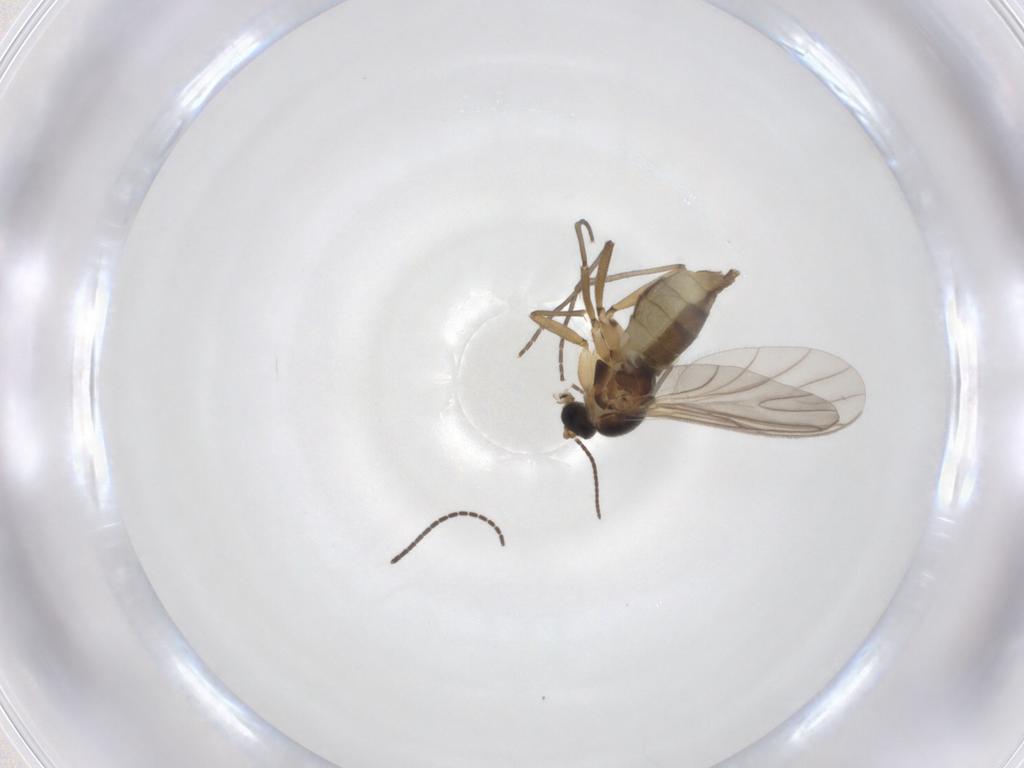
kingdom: Animalia
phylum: Arthropoda
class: Insecta
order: Diptera
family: Sciaridae
